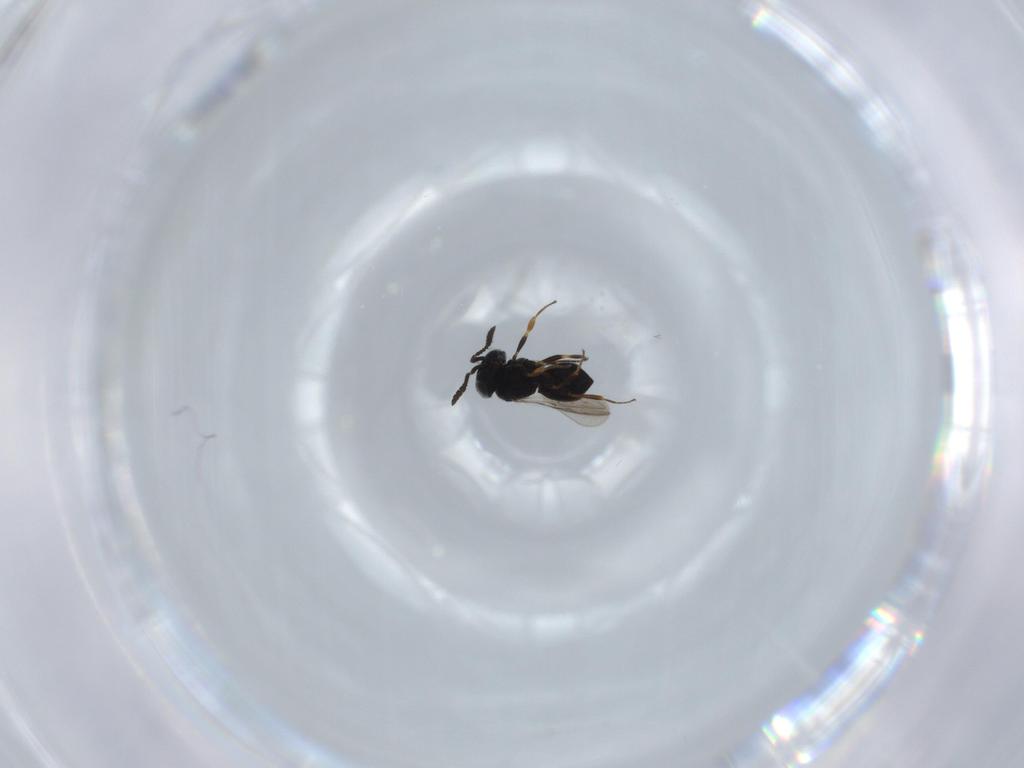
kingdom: Animalia
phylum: Arthropoda
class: Insecta
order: Hymenoptera
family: Scelionidae
